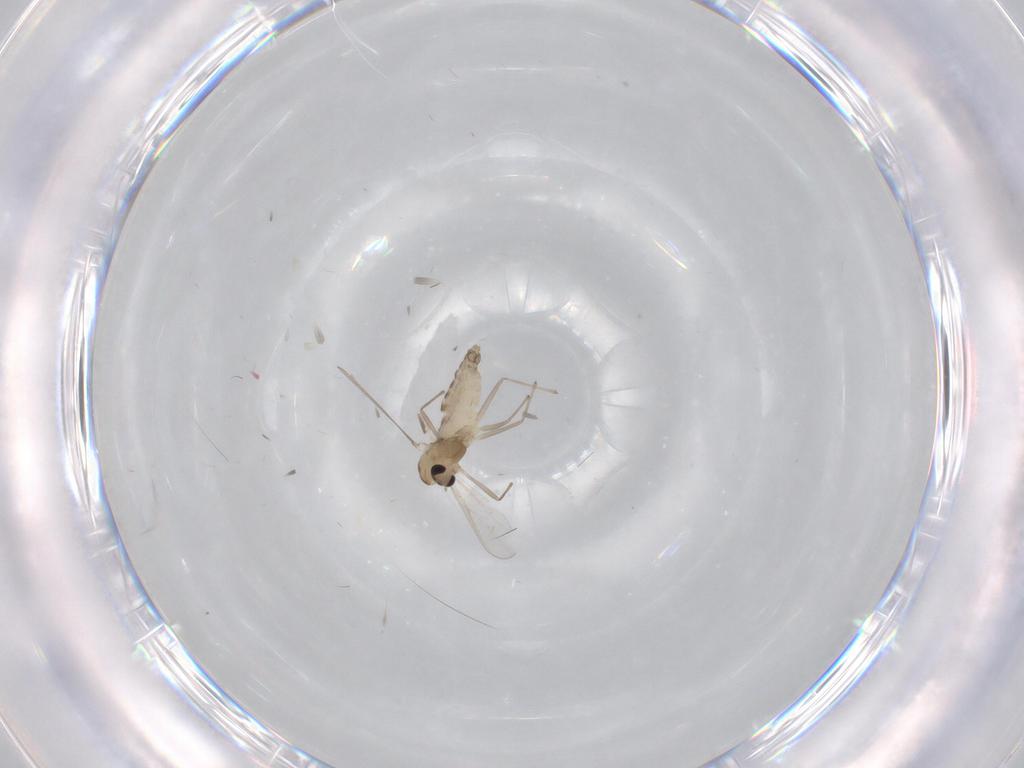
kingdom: Animalia
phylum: Arthropoda
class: Insecta
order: Diptera
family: Chironomidae
